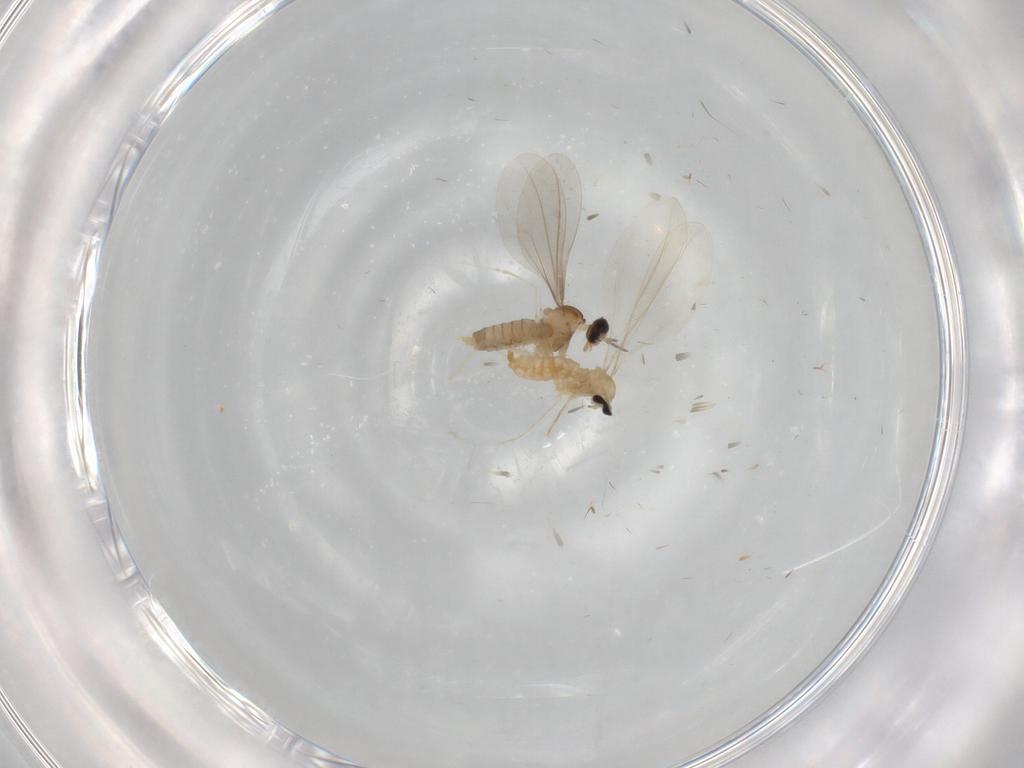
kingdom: Animalia
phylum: Arthropoda
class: Insecta
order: Diptera
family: Cecidomyiidae
